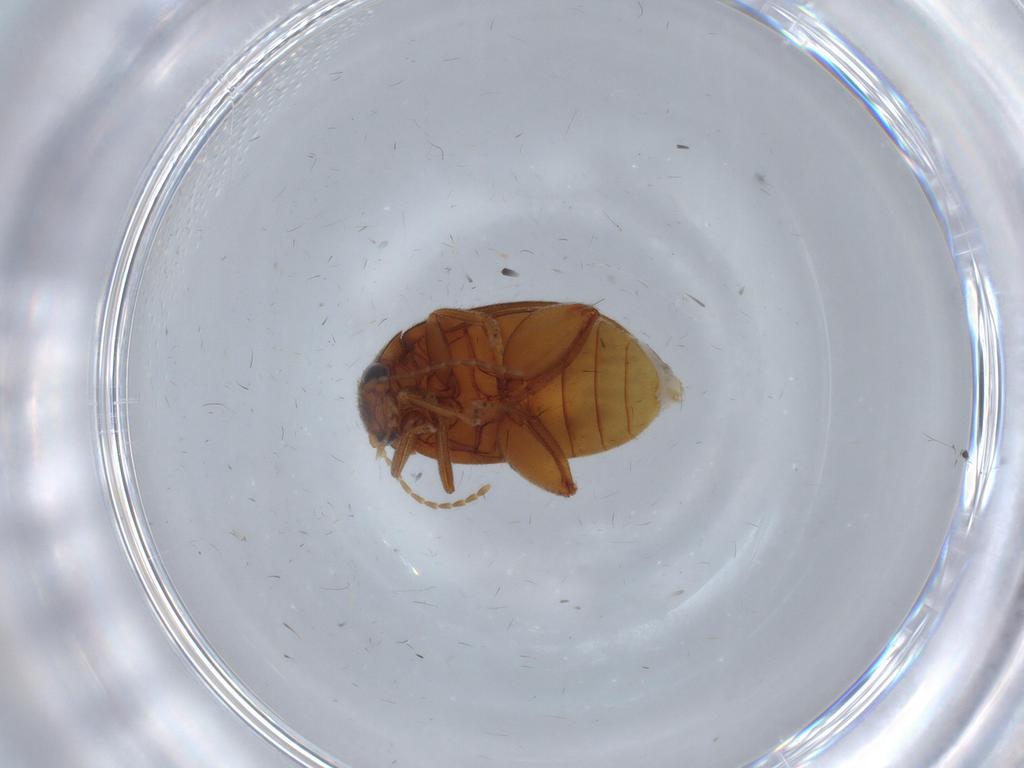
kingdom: Animalia
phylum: Arthropoda
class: Insecta
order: Coleoptera
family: Scirtidae
